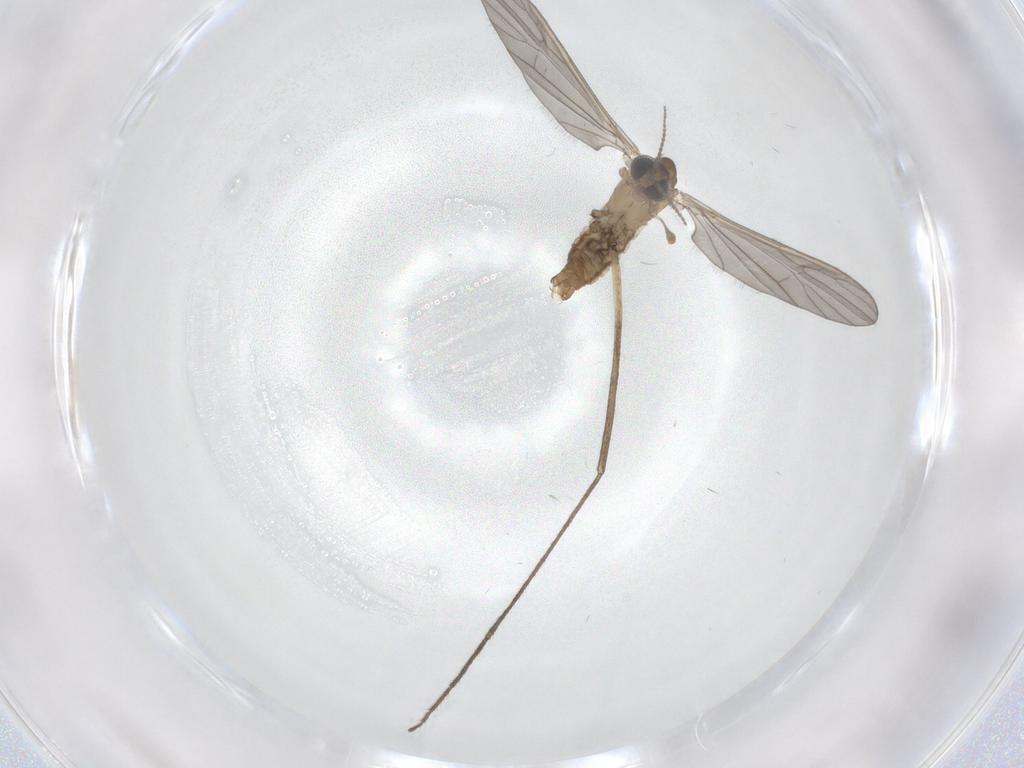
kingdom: Animalia
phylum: Arthropoda
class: Insecta
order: Diptera
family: Limoniidae
